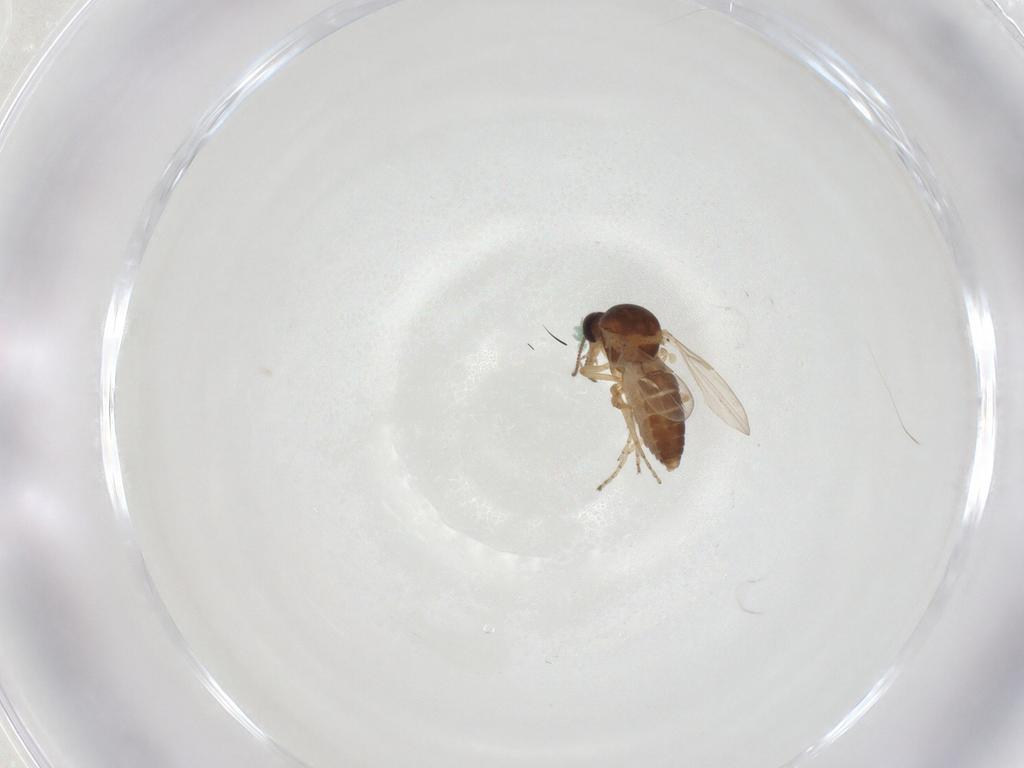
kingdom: Animalia
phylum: Arthropoda
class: Insecta
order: Diptera
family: Ceratopogonidae
